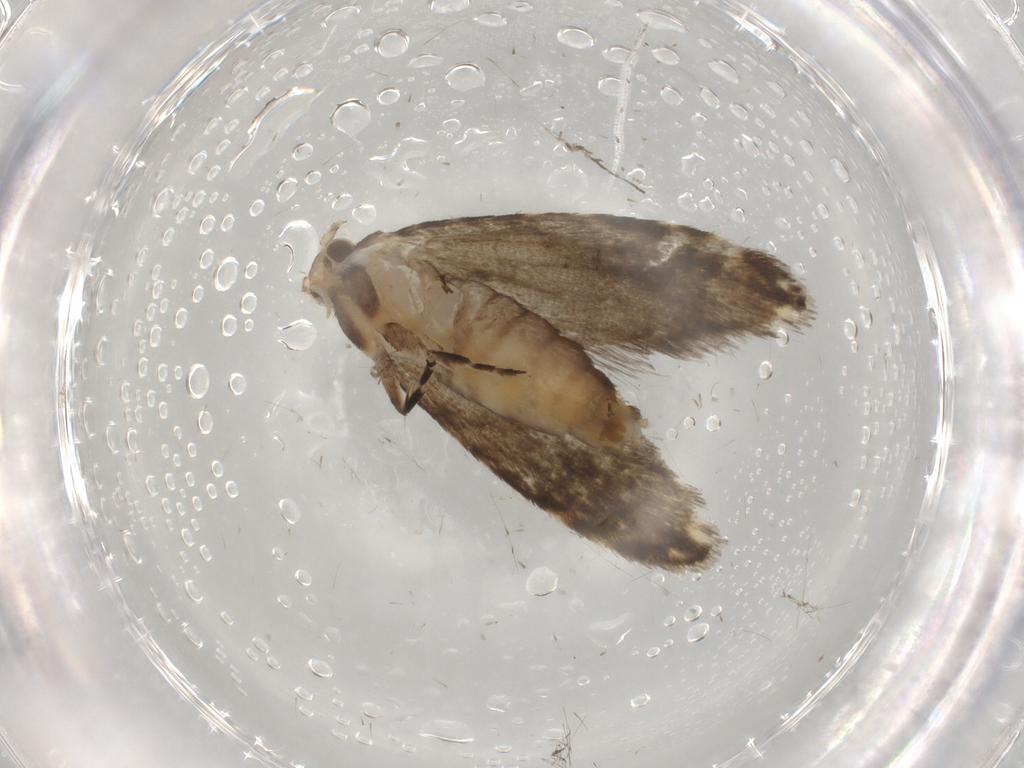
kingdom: Animalia
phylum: Arthropoda
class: Insecta
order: Lepidoptera
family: Tineidae
